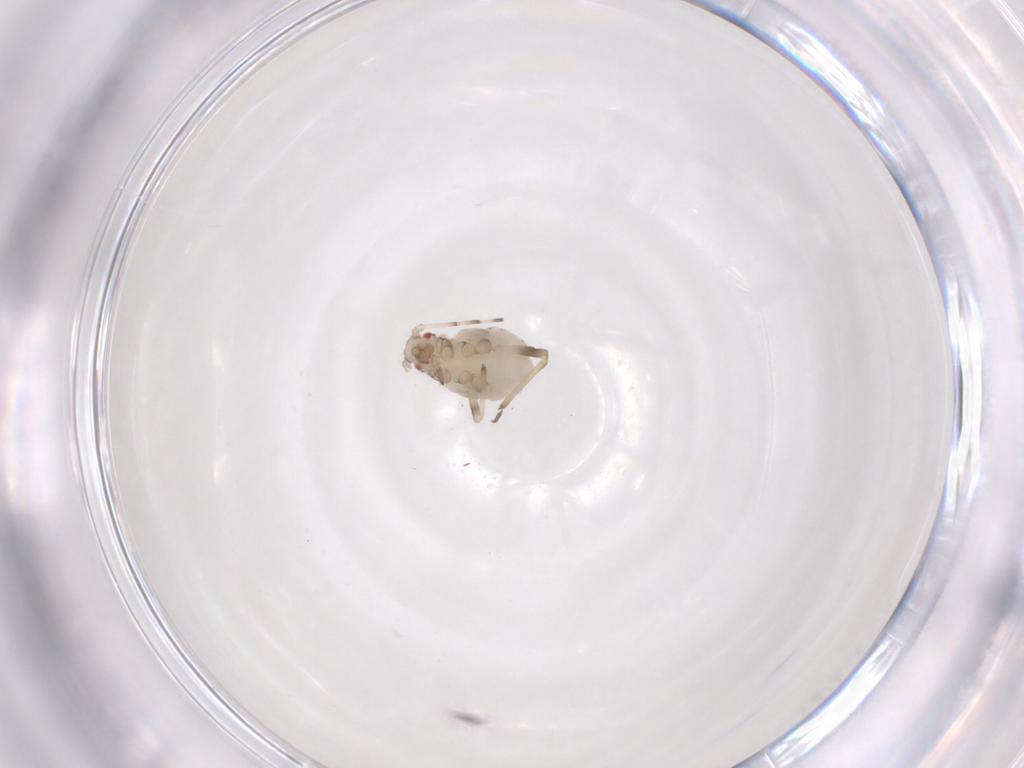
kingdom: Animalia
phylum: Arthropoda
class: Insecta
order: Hemiptera
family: Aphididae
